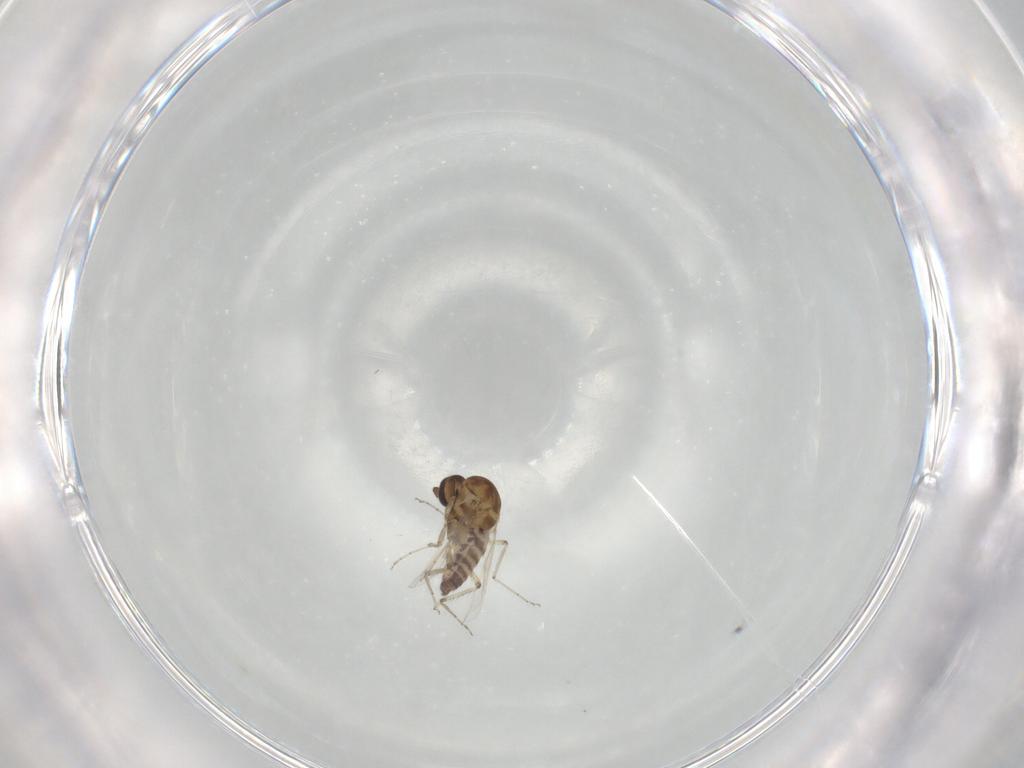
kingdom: Animalia
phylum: Arthropoda
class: Insecta
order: Diptera
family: Ceratopogonidae
